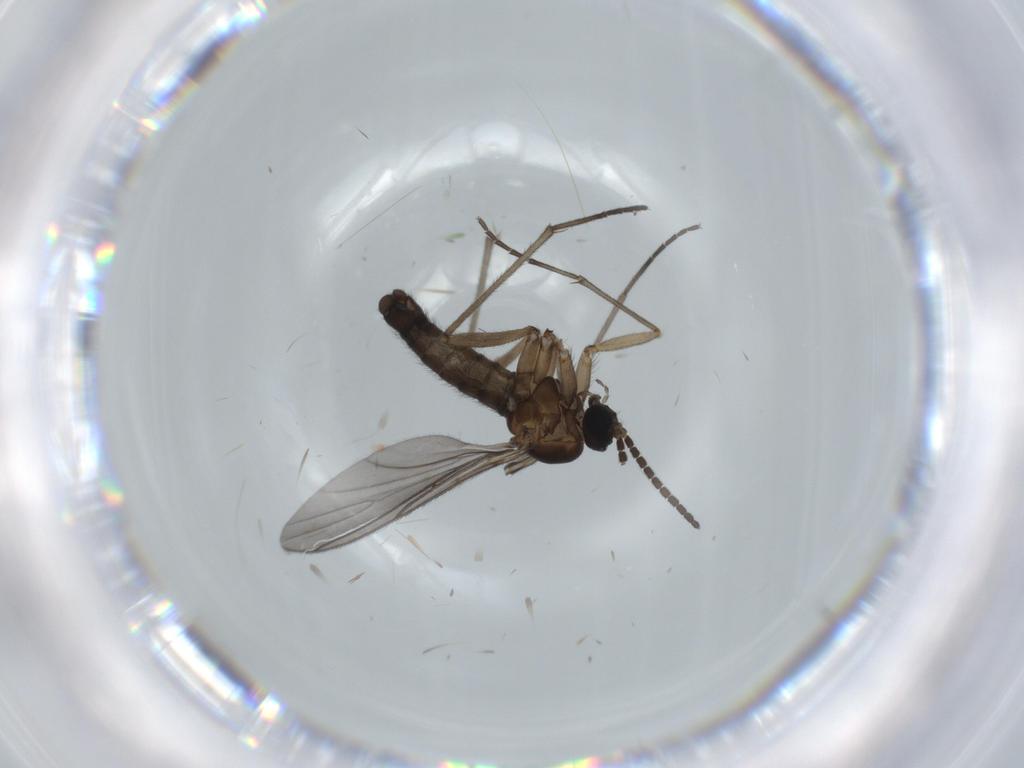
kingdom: Animalia
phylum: Arthropoda
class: Insecta
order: Diptera
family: Sciaridae
